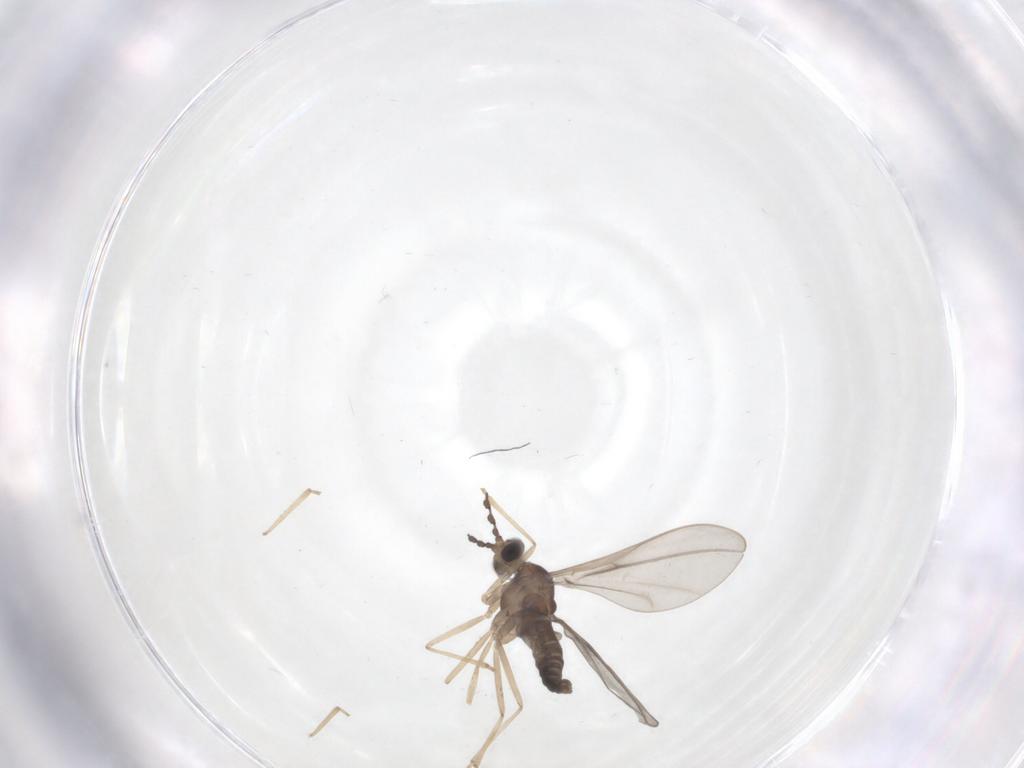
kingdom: Animalia
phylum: Arthropoda
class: Insecta
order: Diptera
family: Cecidomyiidae
